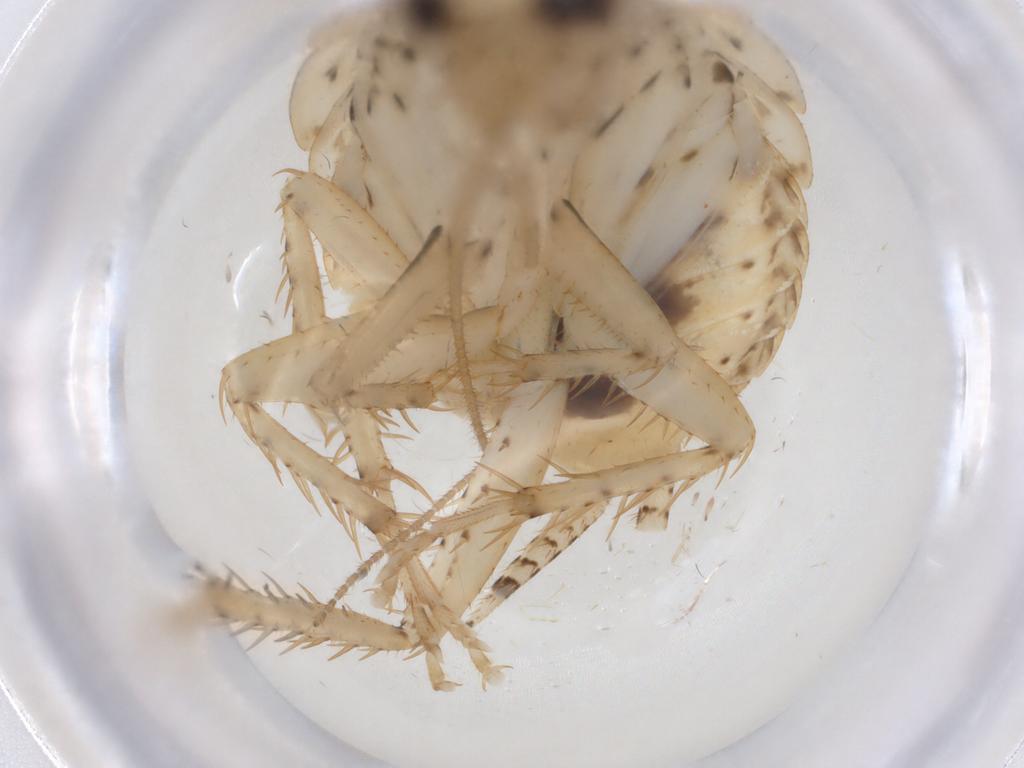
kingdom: Animalia
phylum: Arthropoda
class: Insecta
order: Blattodea
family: Ectobiidae
